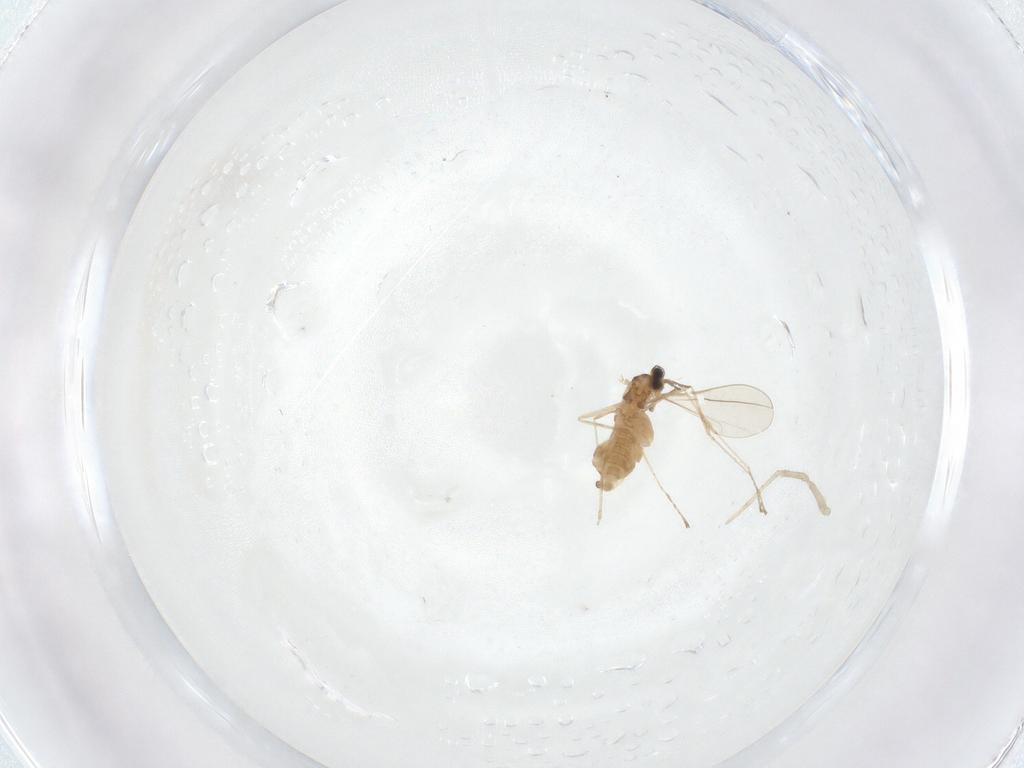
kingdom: Animalia
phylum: Arthropoda
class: Insecta
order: Diptera
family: Cecidomyiidae
